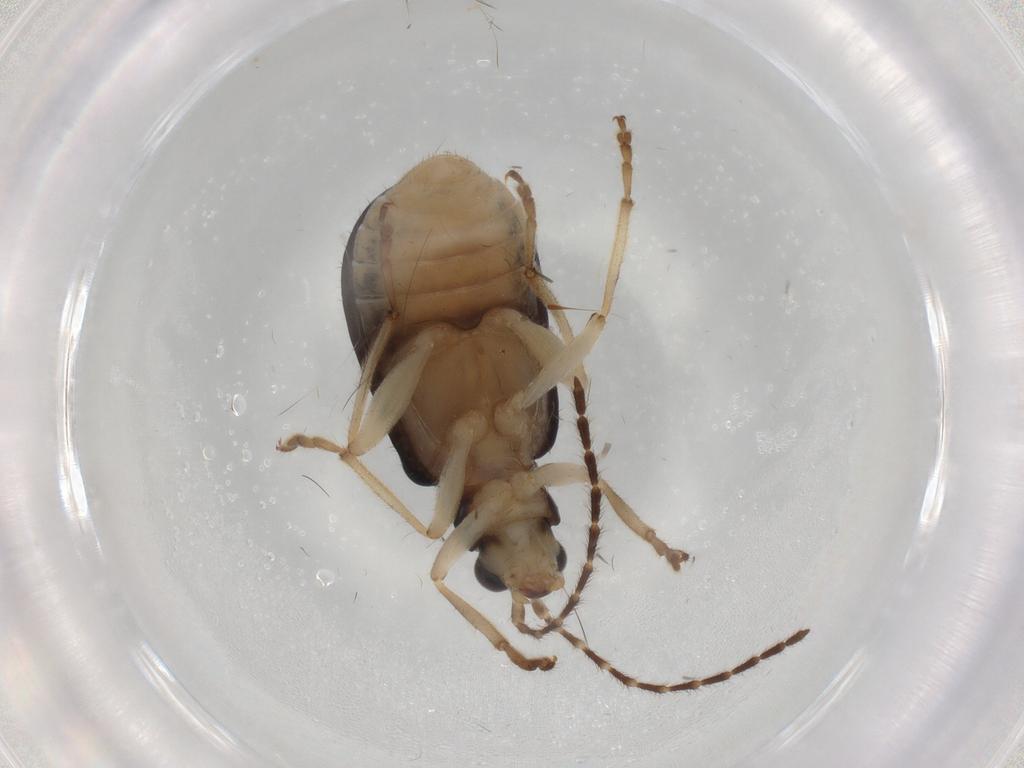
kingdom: Animalia
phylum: Arthropoda
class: Insecta
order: Coleoptera
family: Chrysomelidae
